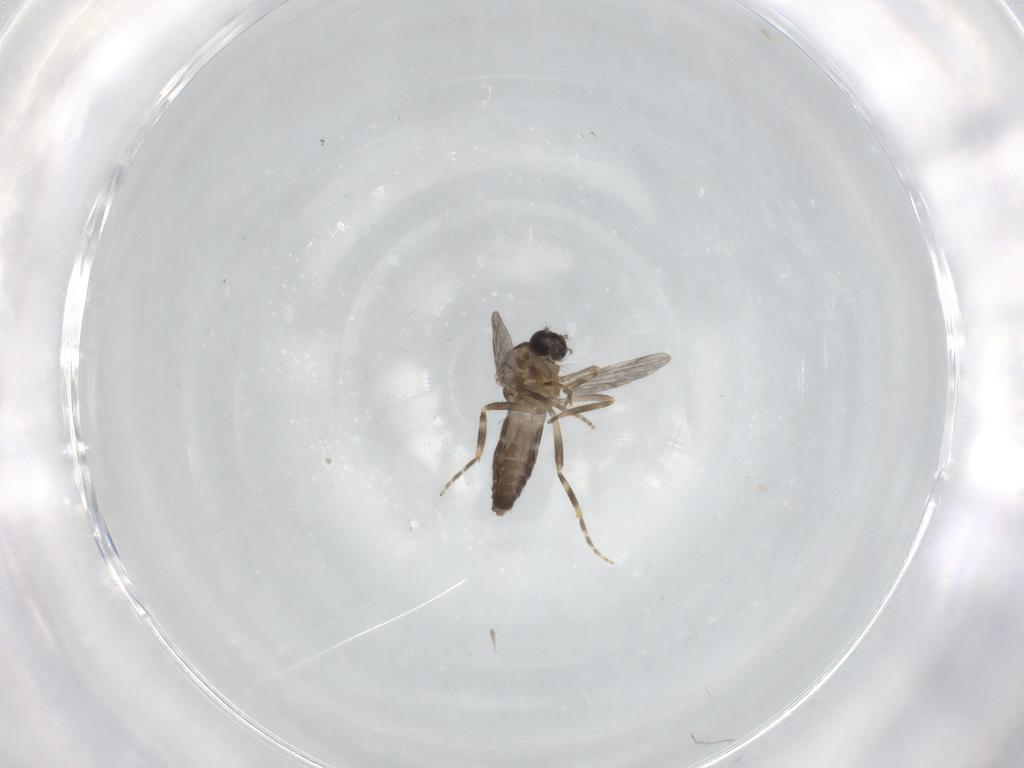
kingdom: Animalia
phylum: Arthropoda
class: Insecta
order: Diptera
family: Ceratopogonidae
